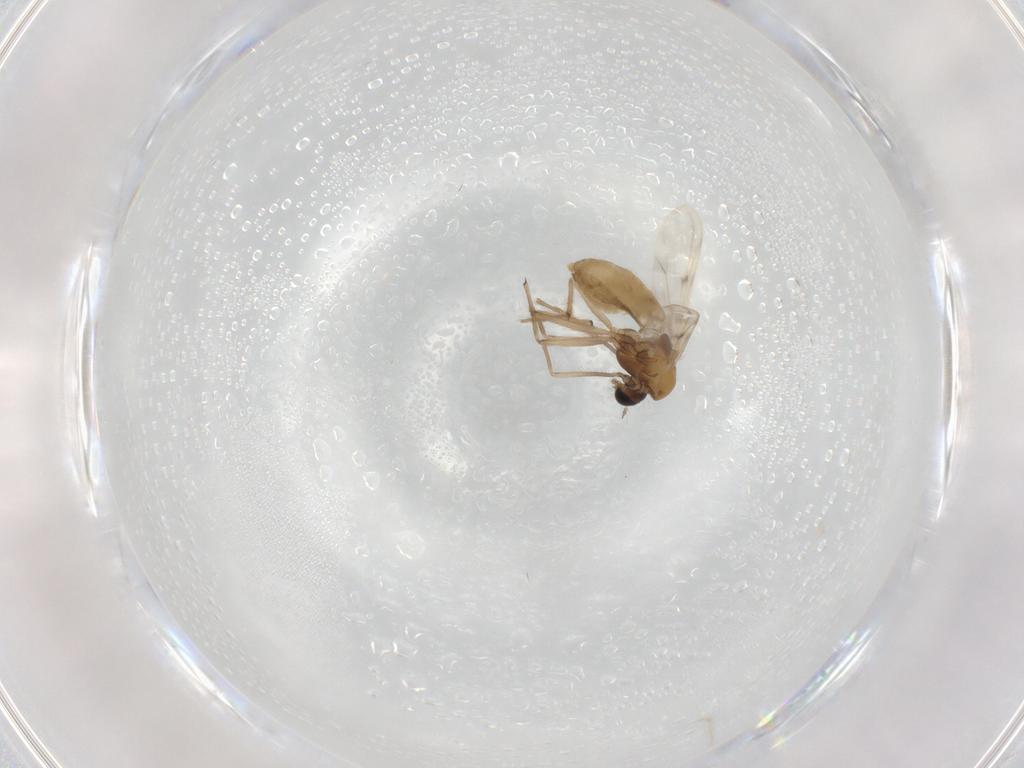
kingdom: Animalia
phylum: Arthropoda
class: Insecta
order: Diptera
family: Chironomidae
